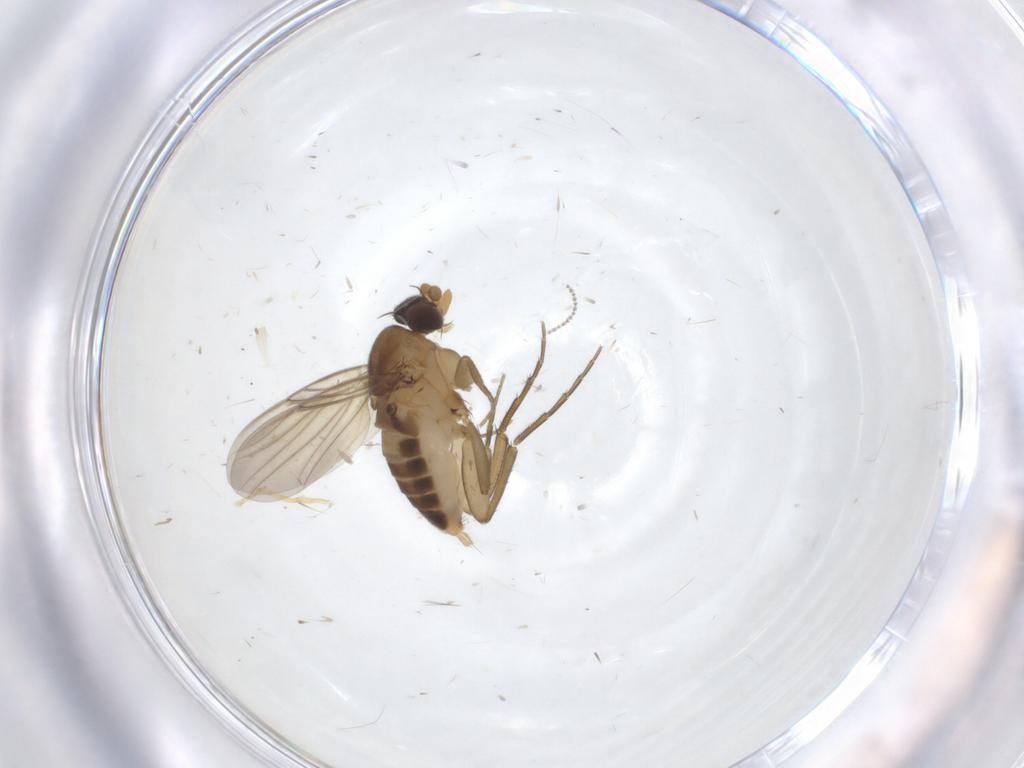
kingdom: Animalia
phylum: Arthropoda
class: Insecta
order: Diptera
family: Phoridae
